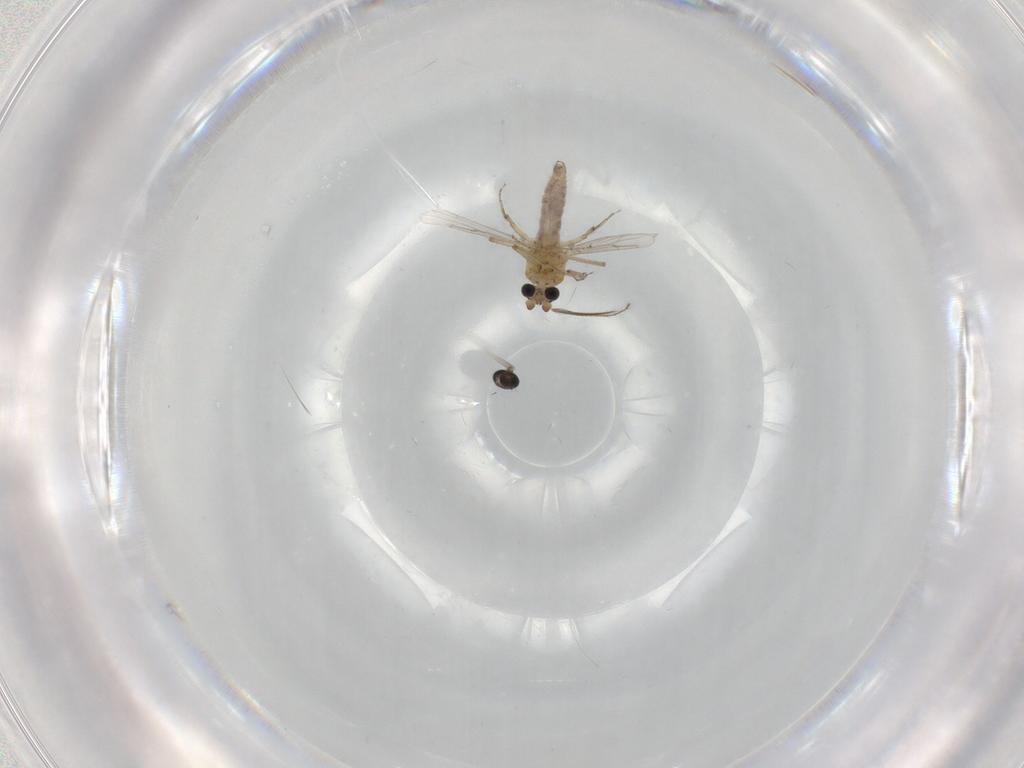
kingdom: Animalia
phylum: Arthropoda
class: Insecta
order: Diptera
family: Ceratopogonidae
